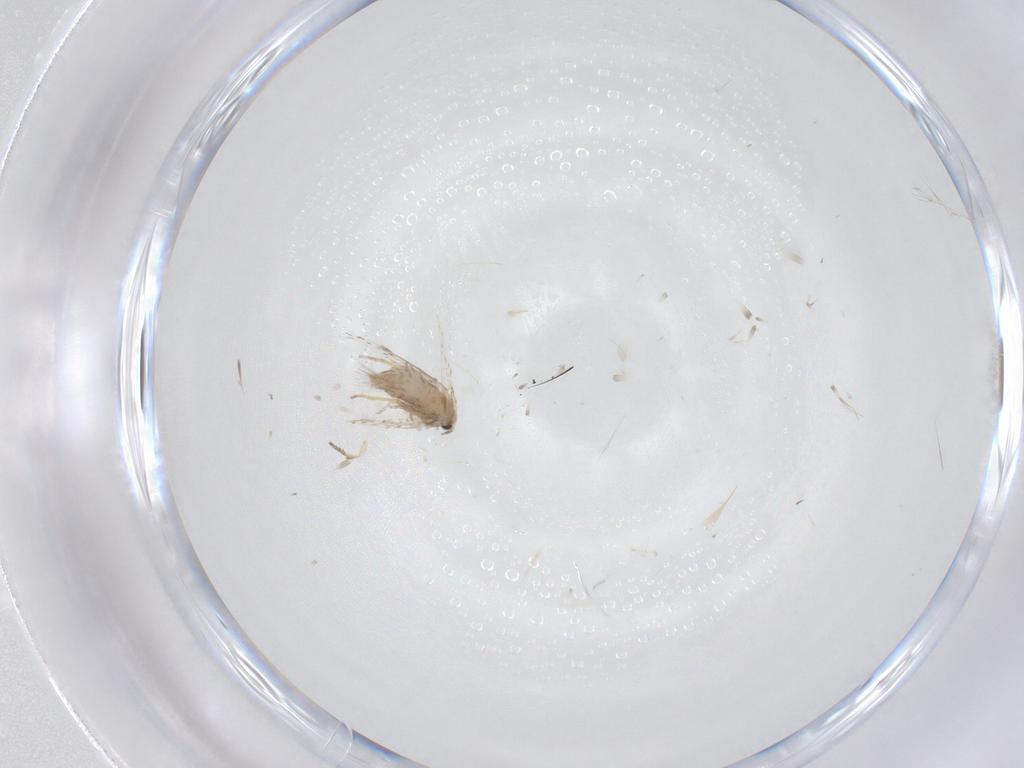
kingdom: Animalia
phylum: Arthropoda
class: Insecta
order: Lepidoptera
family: Nepticulidae
